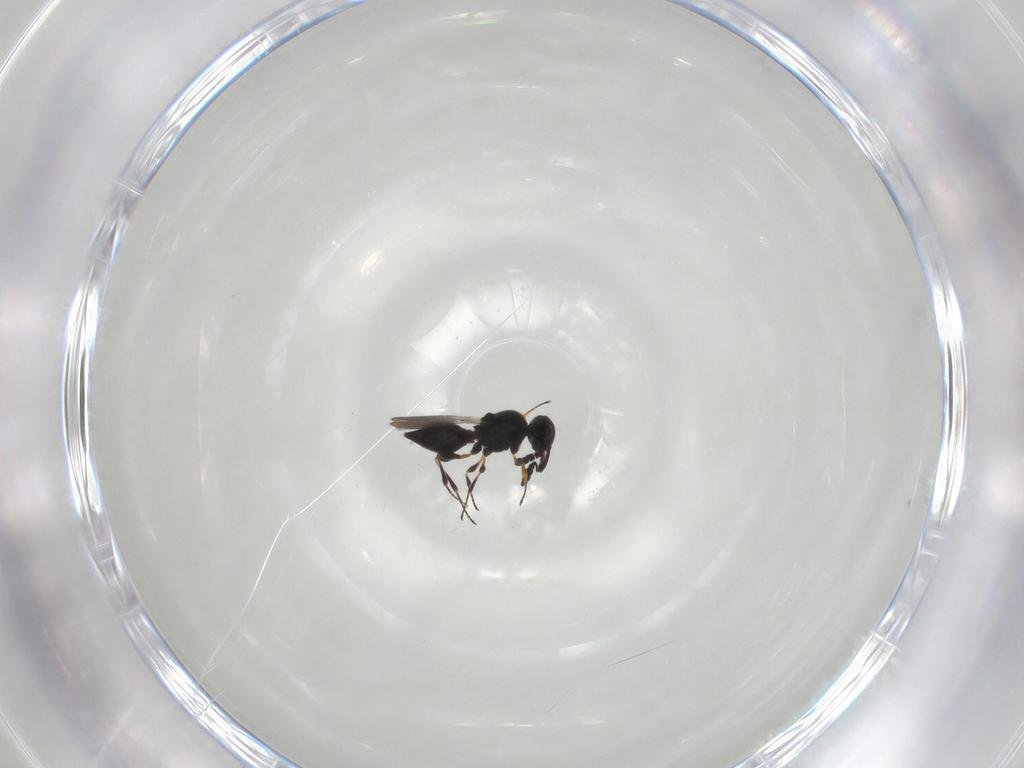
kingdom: Animalia
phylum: Arthropoda
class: Insecta
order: Hymenoptera
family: Platygastridae
